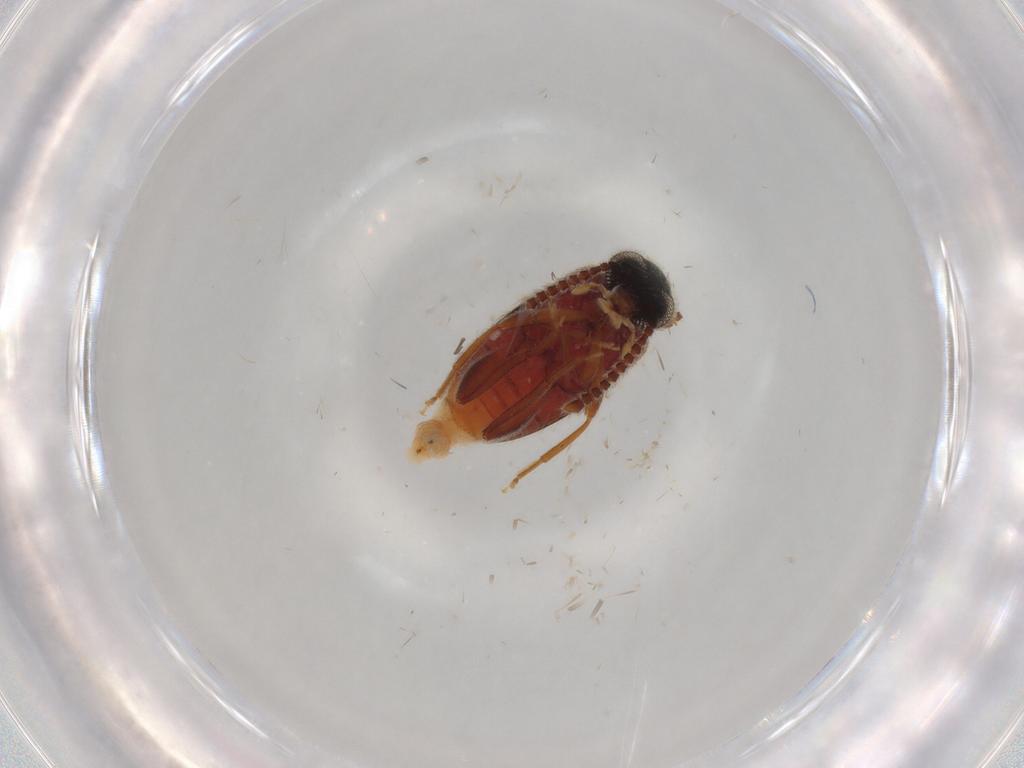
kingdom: Animalia
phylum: Arthropoda
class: Insecta
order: Coleoptera
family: Aderidae
